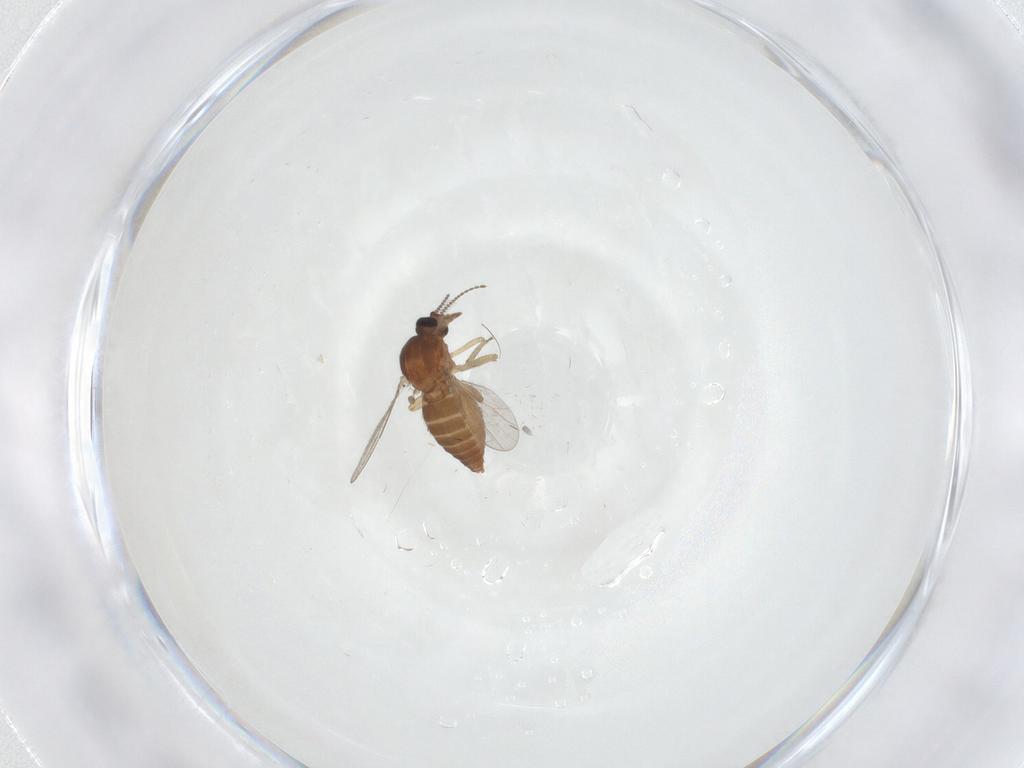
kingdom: Animalia
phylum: Arthropoda
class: Insecta
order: Diptera
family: Ceratopogonidae
